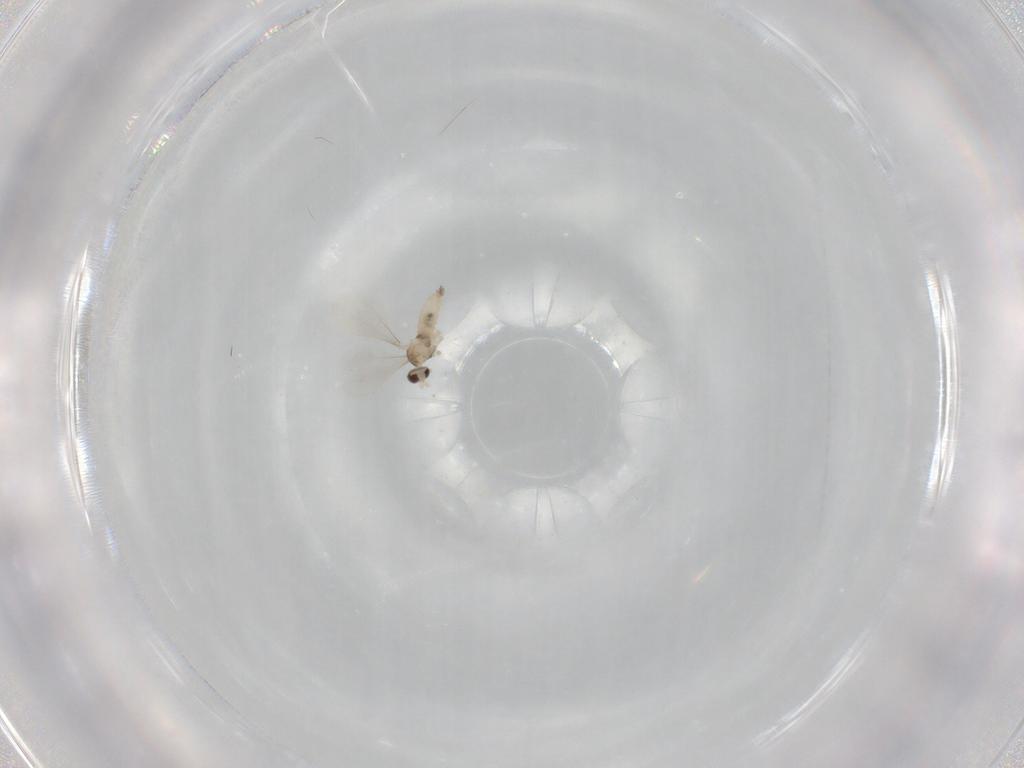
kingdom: Animalia
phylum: Arthropoda
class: Insecta
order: Diptera
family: Cecidomyiidae
